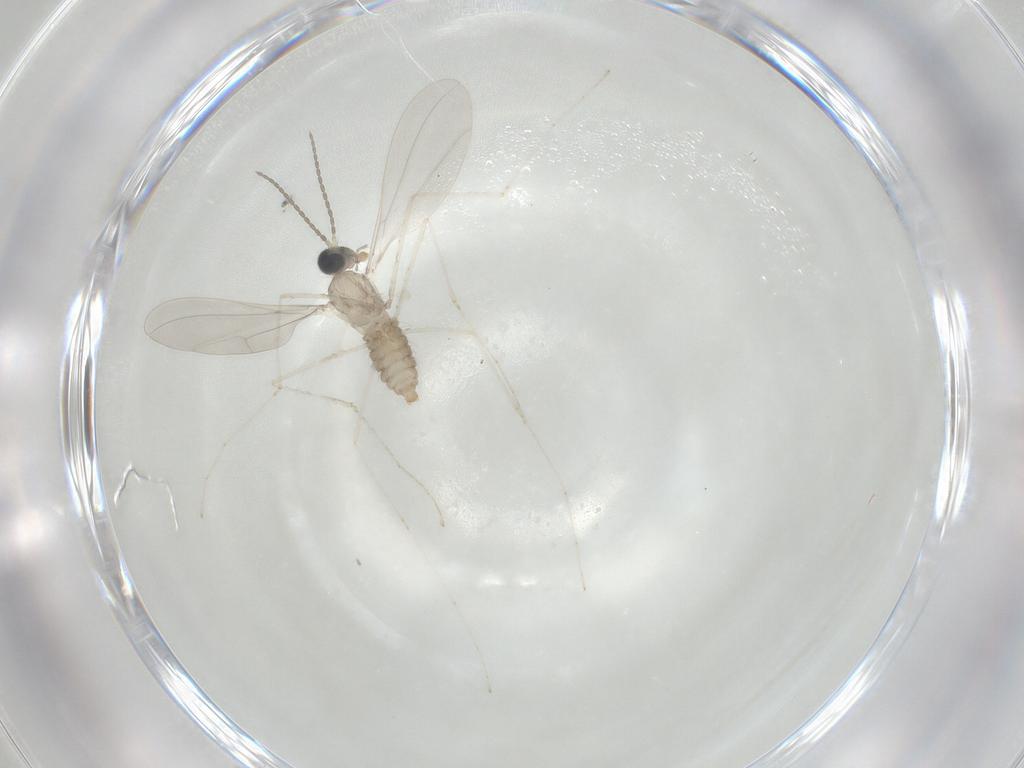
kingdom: Animalia
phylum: Arthropoda
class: Insecta
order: Diptera
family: Cecidomyiidae
